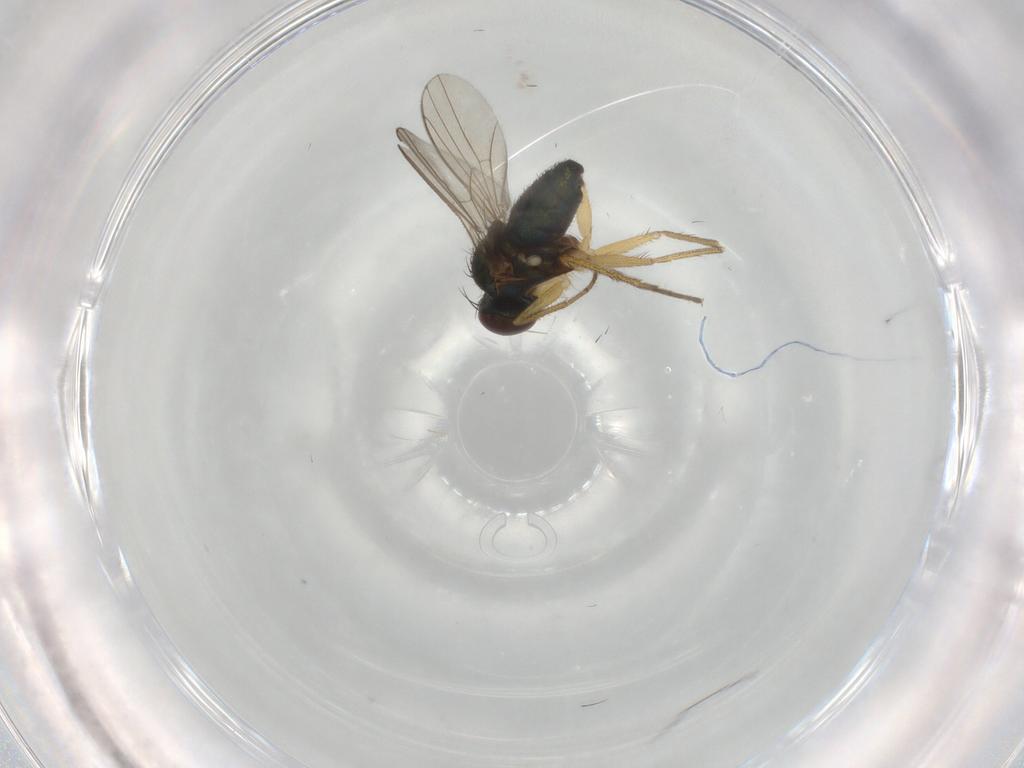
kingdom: Animalia
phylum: Arthropoda
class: Insecta
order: Diptera
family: Dolichopodidae
